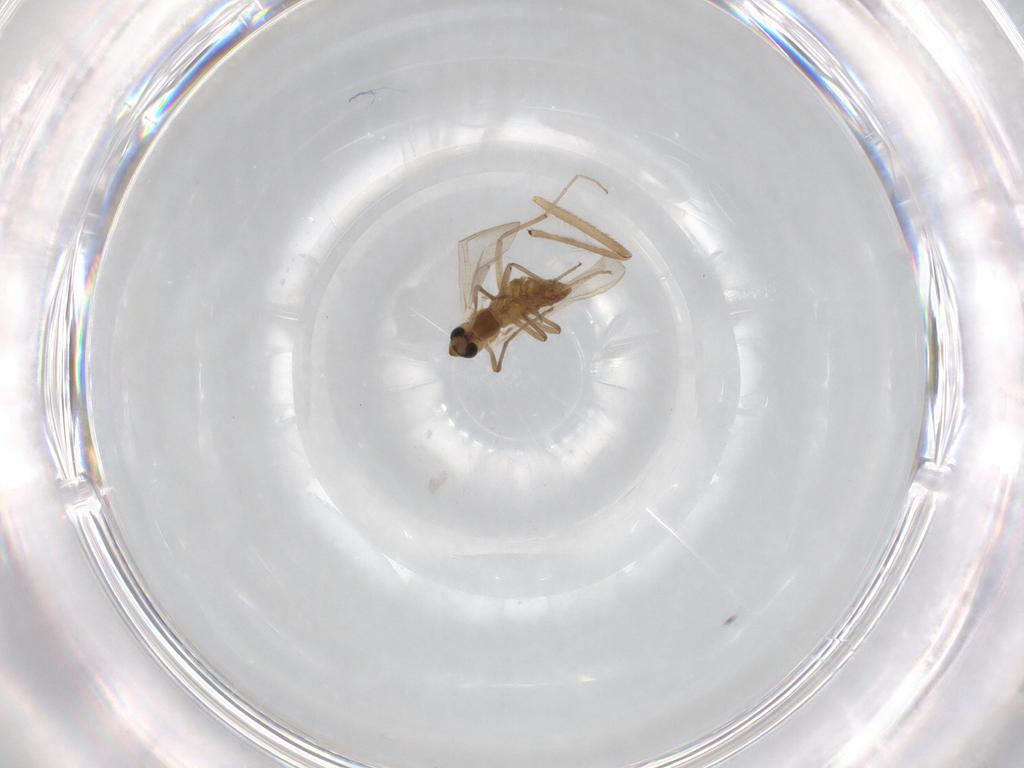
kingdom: Animalia
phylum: Arthropoda
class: Insecta
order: Diptera
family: Chironomidae
